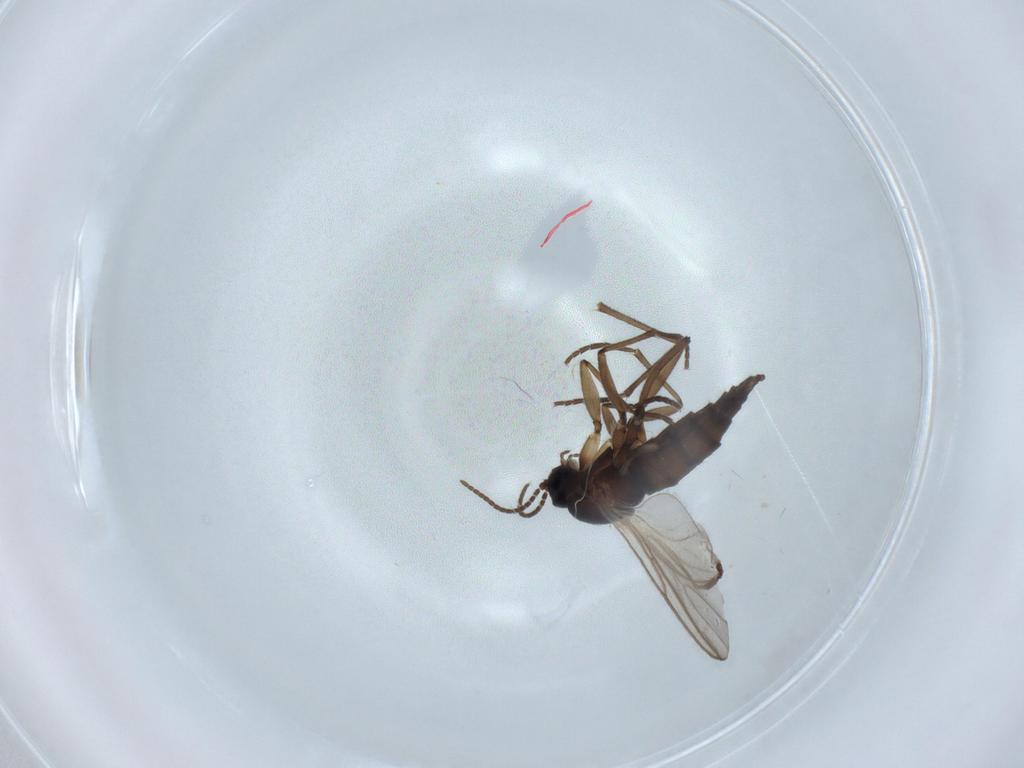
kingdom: Animalia
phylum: Arthropoda
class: Insecta
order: Diptera
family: Sciaridae
